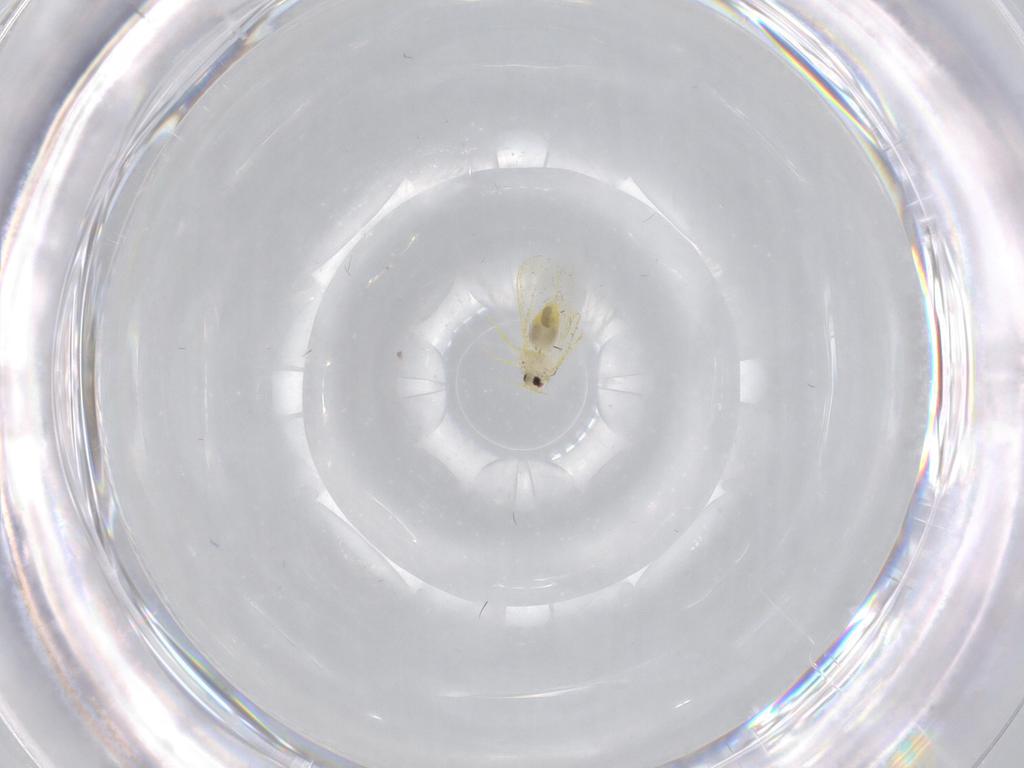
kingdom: Animalia
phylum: Arthropoda
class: Insecta
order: Hemiptera
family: Aleyrodidae
